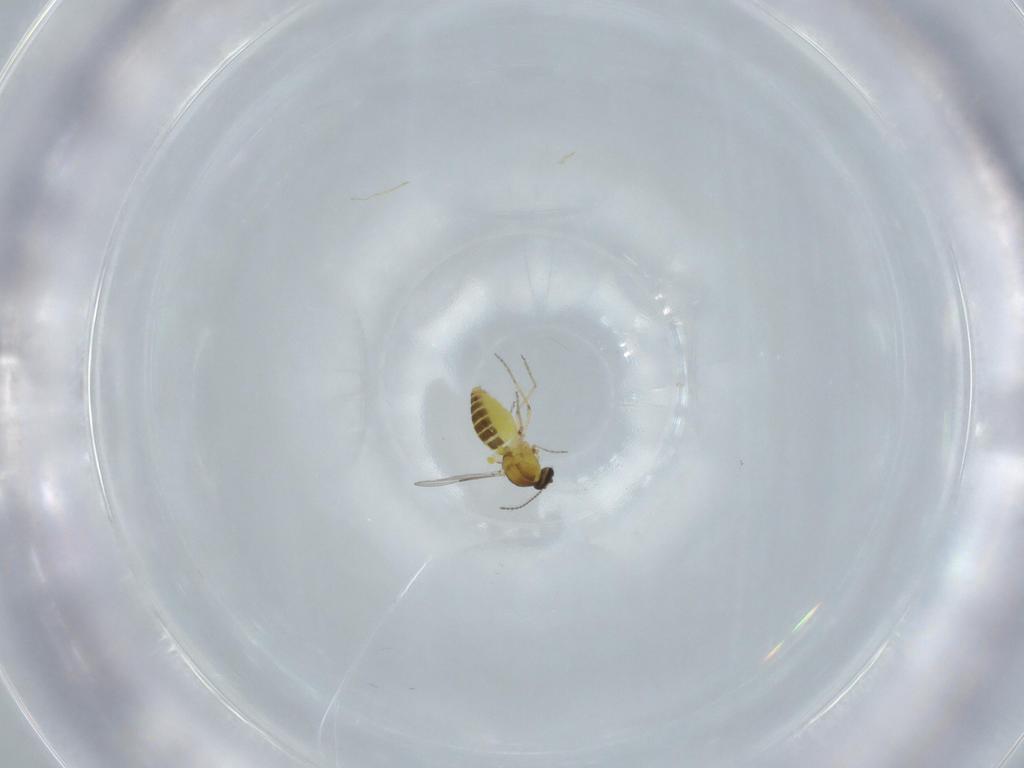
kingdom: Animalia
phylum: Arthropoda
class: Insecta
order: Diptera
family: Ceratopogonidae
